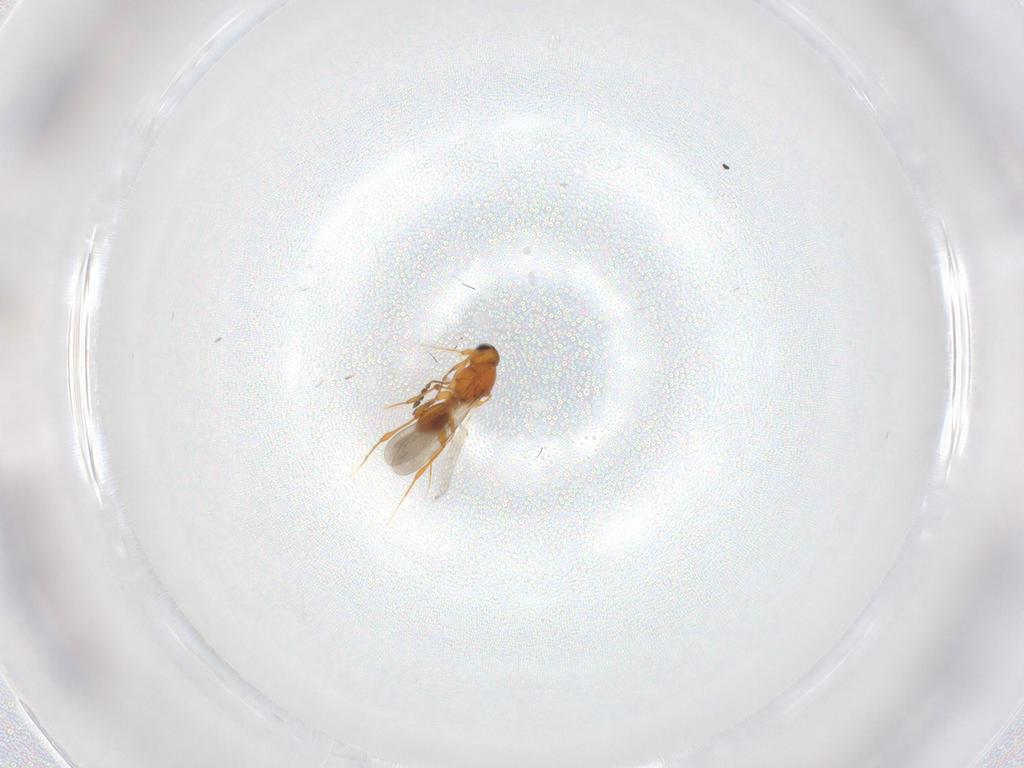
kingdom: Animalia
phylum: Arthropoda
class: Insecta
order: Hymenoptera
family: Platygastridae
